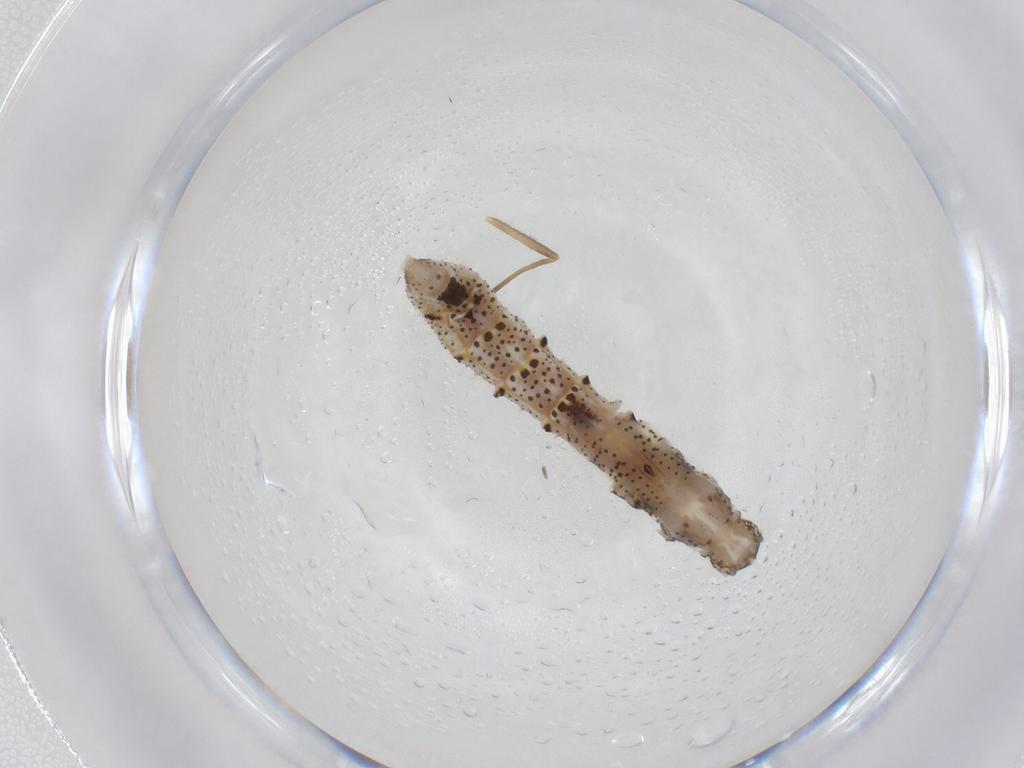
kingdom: Animalia
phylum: Arthropoda
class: Insecta
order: Hemiptera
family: Reduviidae
